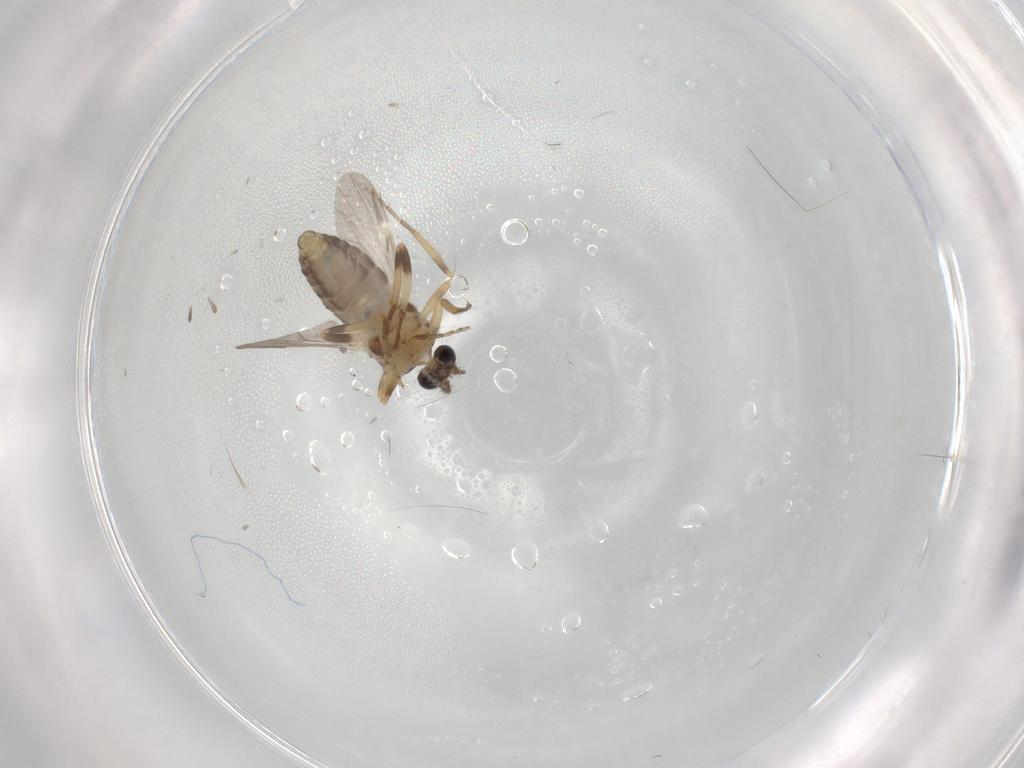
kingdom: Animalia
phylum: Arthropoda
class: Insecta
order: Diptera
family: Ceratopogonidae
